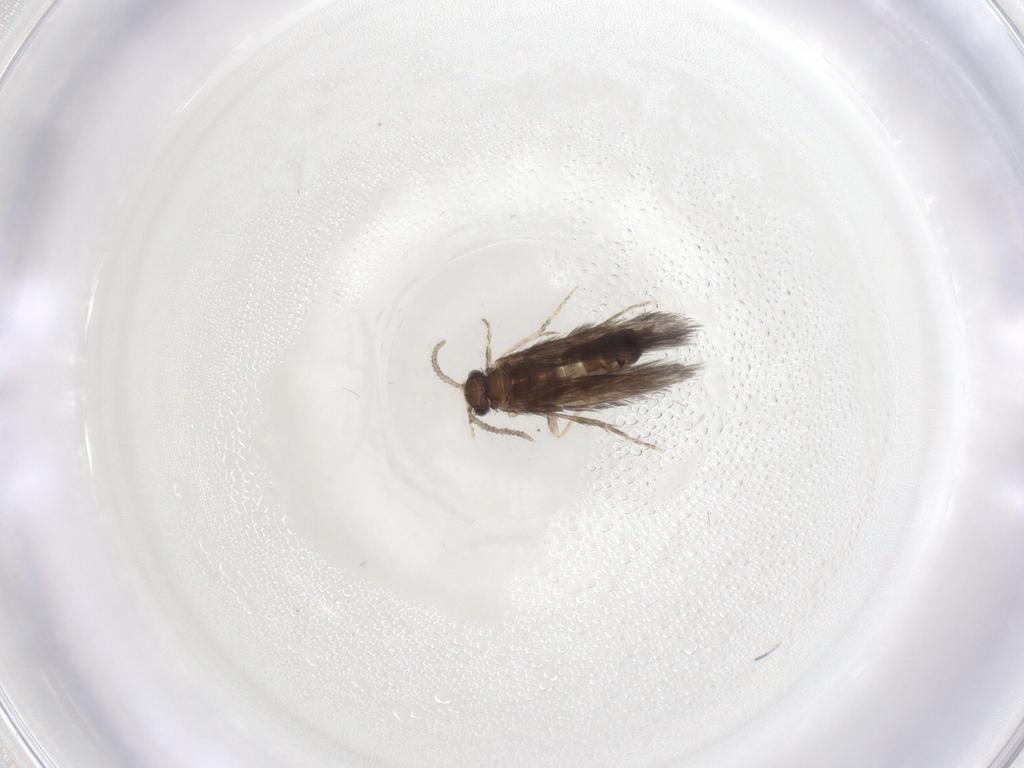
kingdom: Animalia
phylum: Arthropoda
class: Insecta
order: Trichoptera
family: Hydroptilidae
